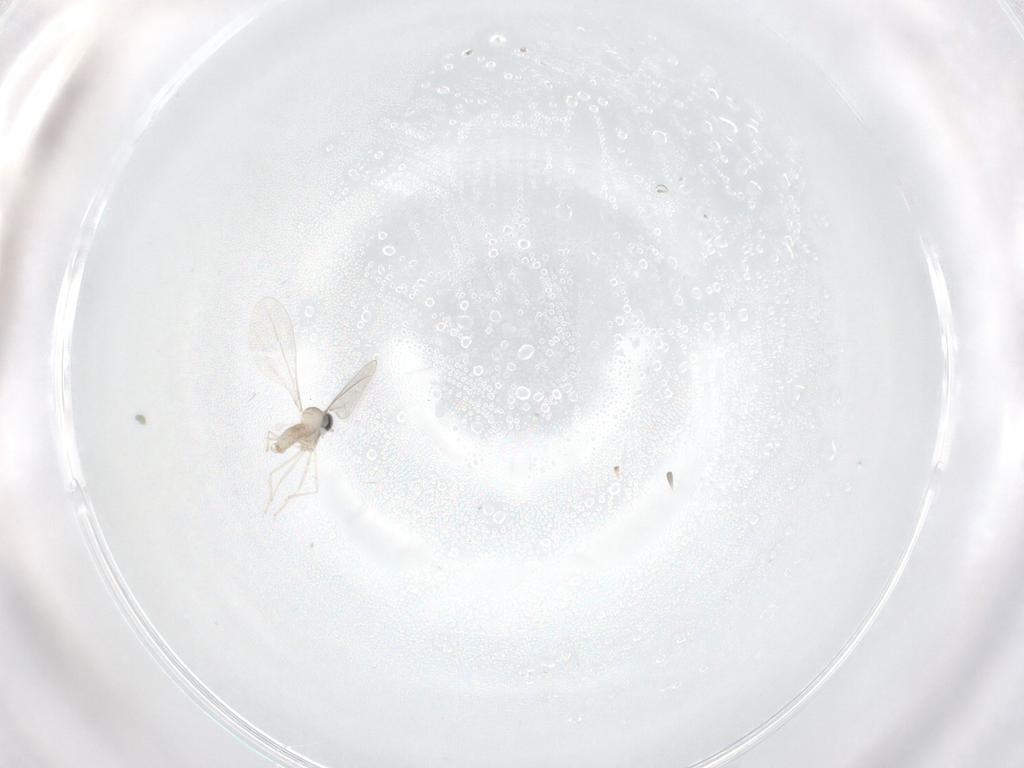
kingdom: Animalia
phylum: Arthropoda
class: Insecta
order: Diptera
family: Cecidomyiidae
